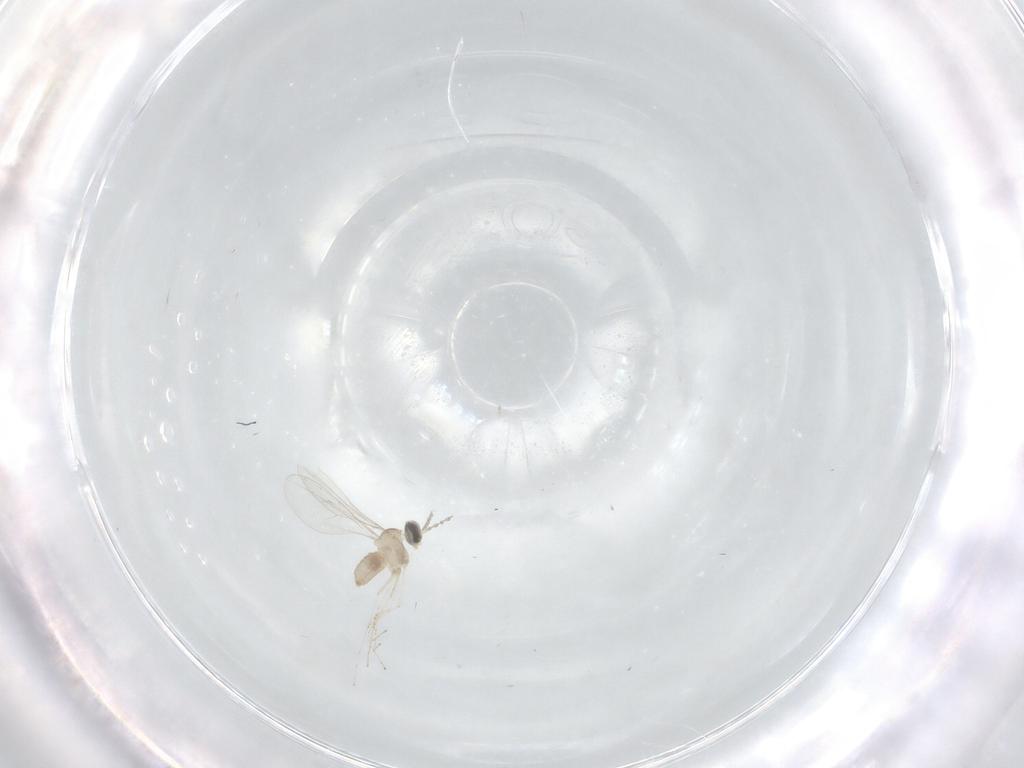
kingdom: Animalia
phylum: Arthropoda
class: Insecta
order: Diptera
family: Cecidomyiidae
